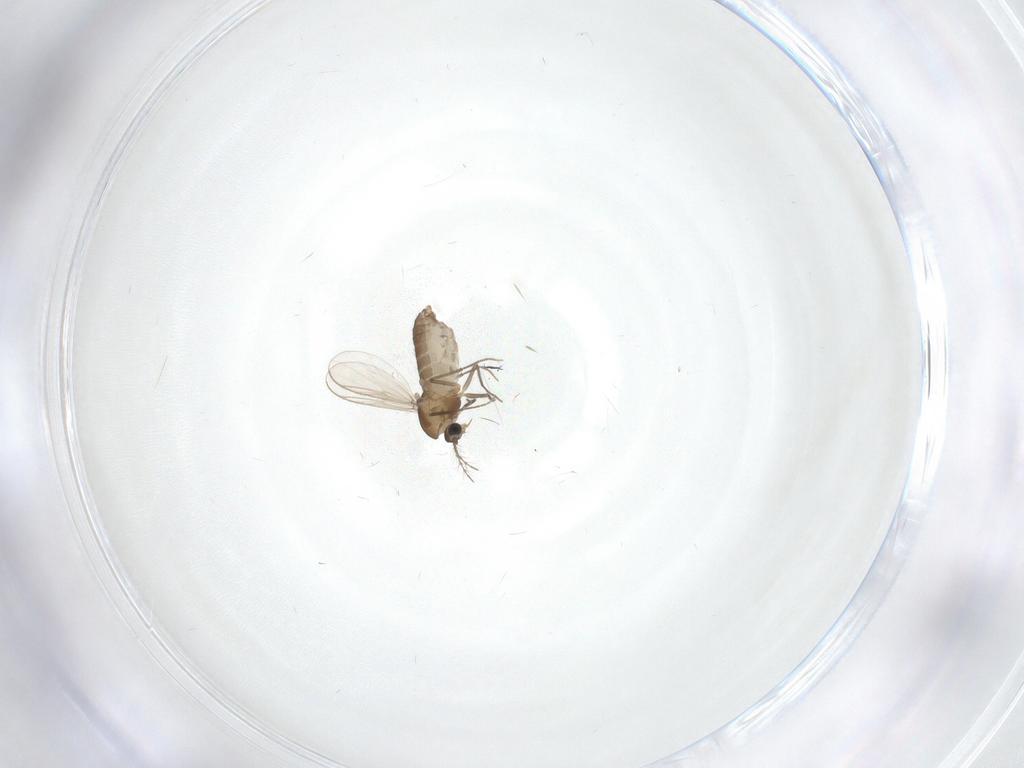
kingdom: Animalia
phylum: Arthropoda
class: Insecta
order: Diptera
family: Chironomidae
